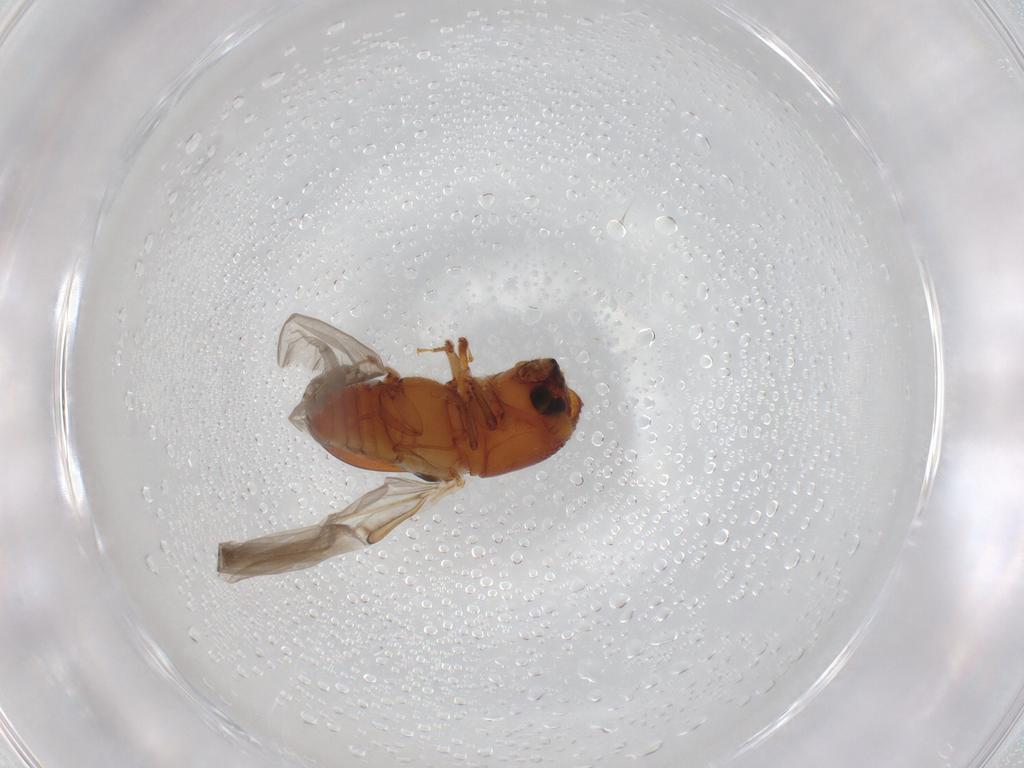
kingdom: Animalia
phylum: Arthropoda
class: Insecta
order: Coleoptera
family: Curculionidae
